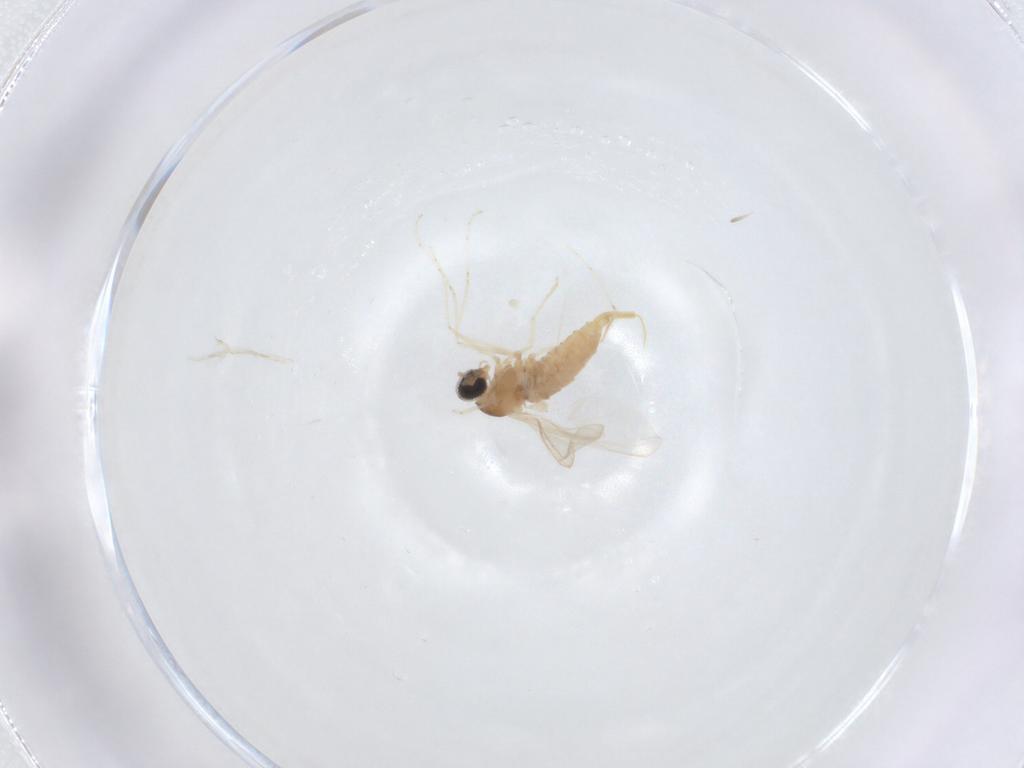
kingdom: Animalia
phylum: Arthropoda
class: Insecta
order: Diptera
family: Cecidomyiidae
